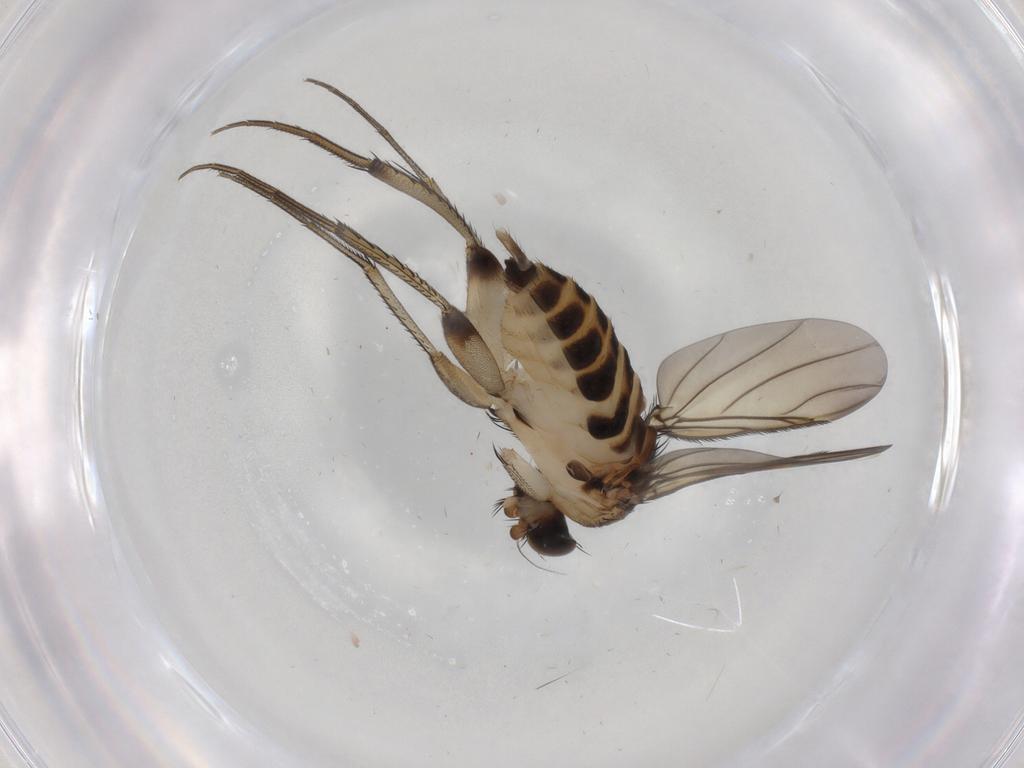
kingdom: Animalia
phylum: Arthropoda
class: Insecta
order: Diptera
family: Phoridae
